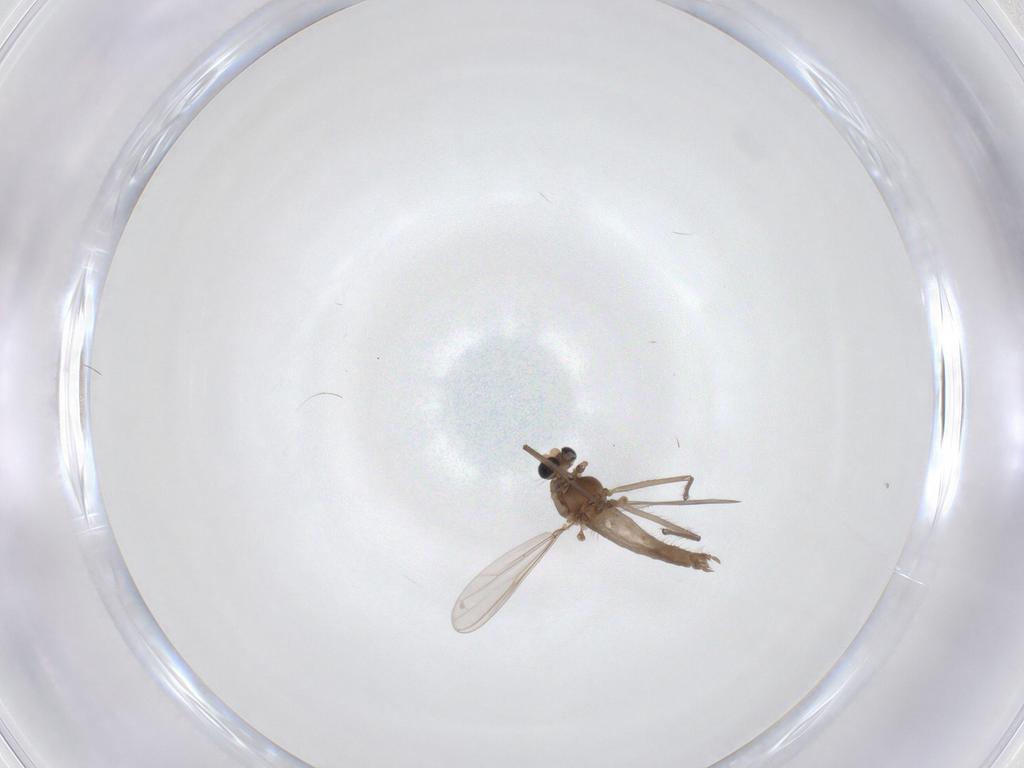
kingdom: Animalia
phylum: Arthropoda
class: Insecta
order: Diptera
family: Chironomidae
